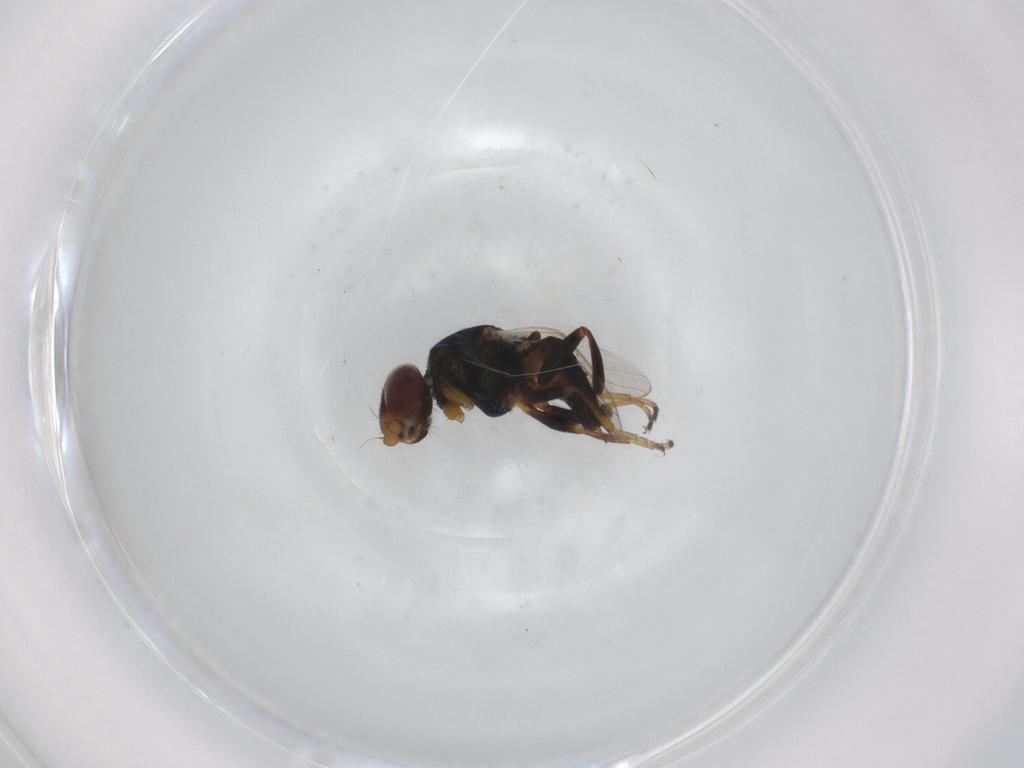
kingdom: Animalia
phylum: Arthropoda
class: Insecta
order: Diptera
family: Chloropidae
